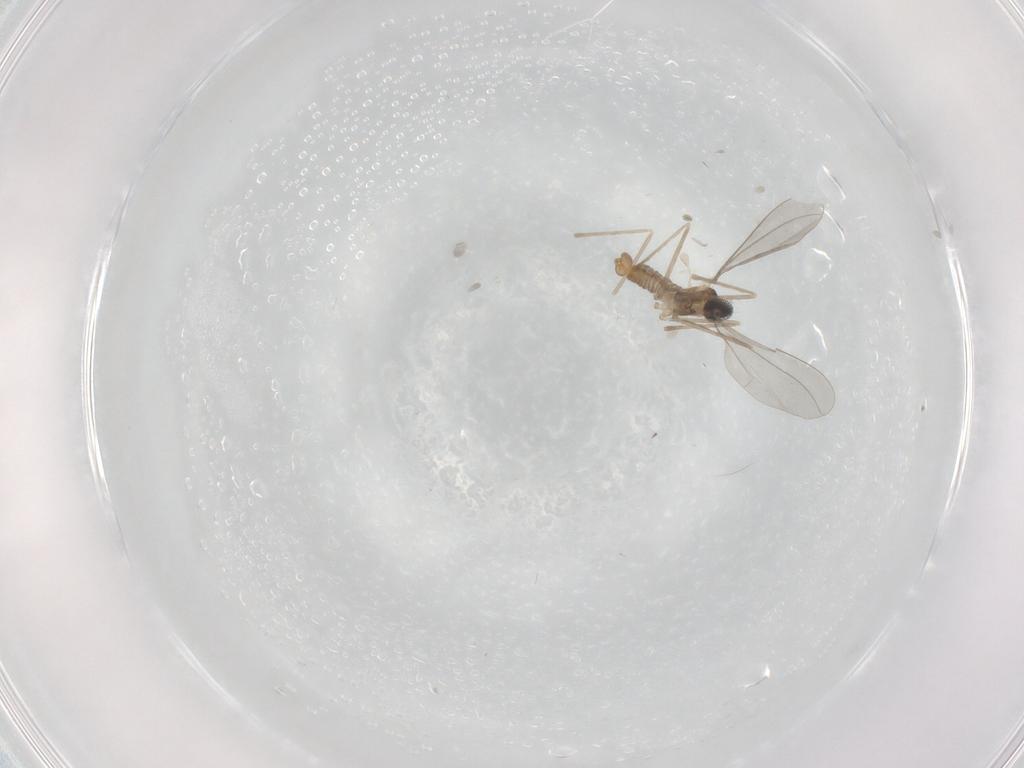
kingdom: Animalia
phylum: Arthropoda
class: Insecta
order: Diptera
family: Cecidomyiidae
